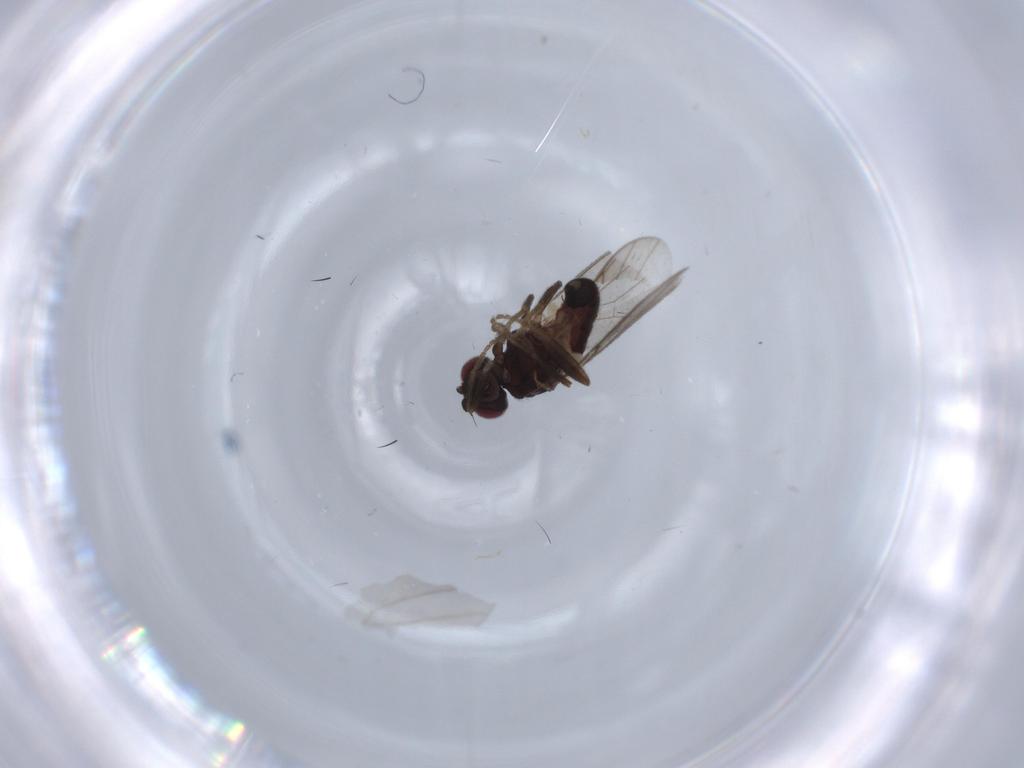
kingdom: Animalia
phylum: Arthropoda
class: Insecta
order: Diptera
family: Chloropidae
